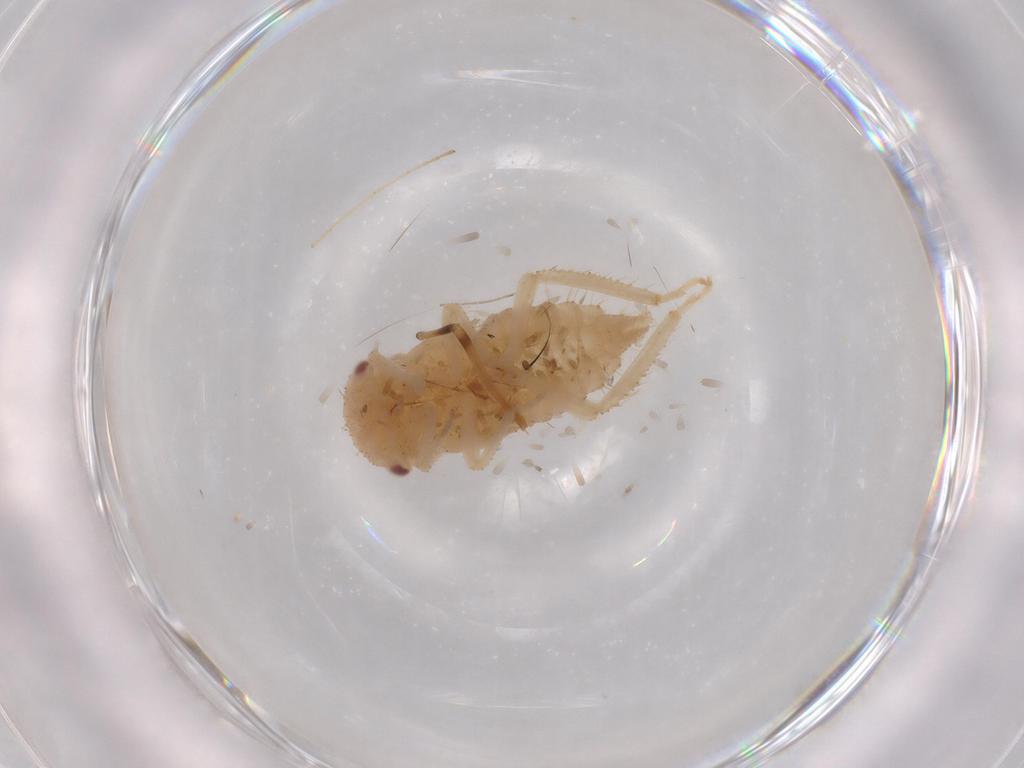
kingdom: Animalia
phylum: Arthropoda
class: Insecta
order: Hemiptera
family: Cicadellidae
